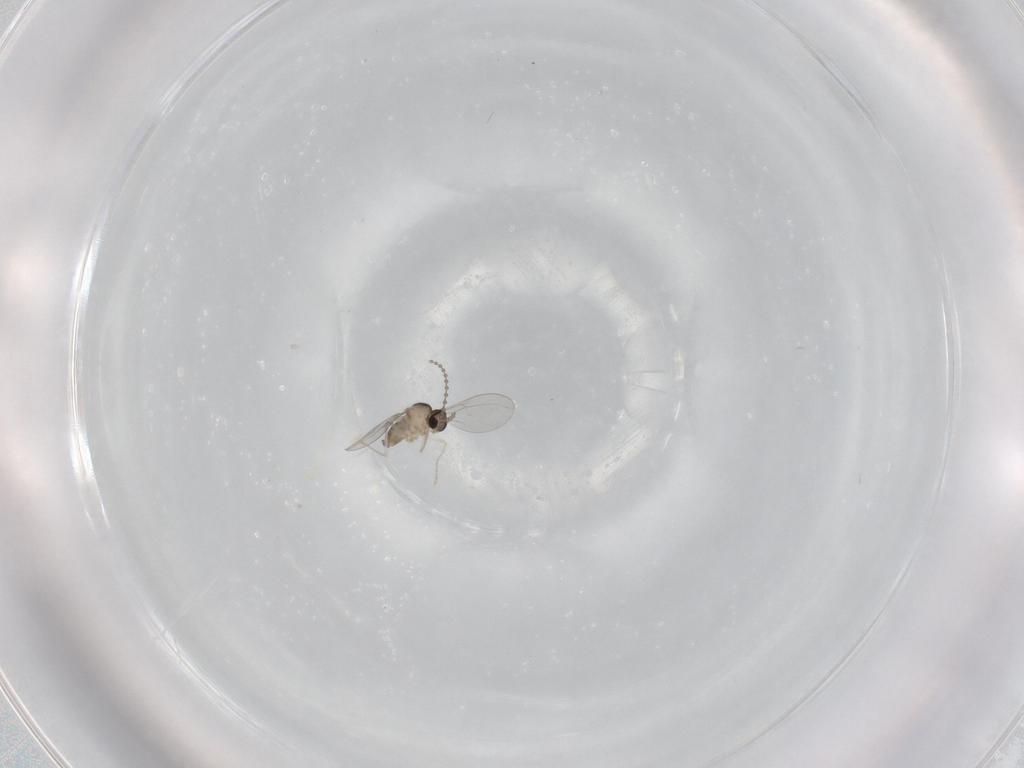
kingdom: Animalia
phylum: Arthropoda
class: Insecta
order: Diptera
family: Cecidomyiidae
